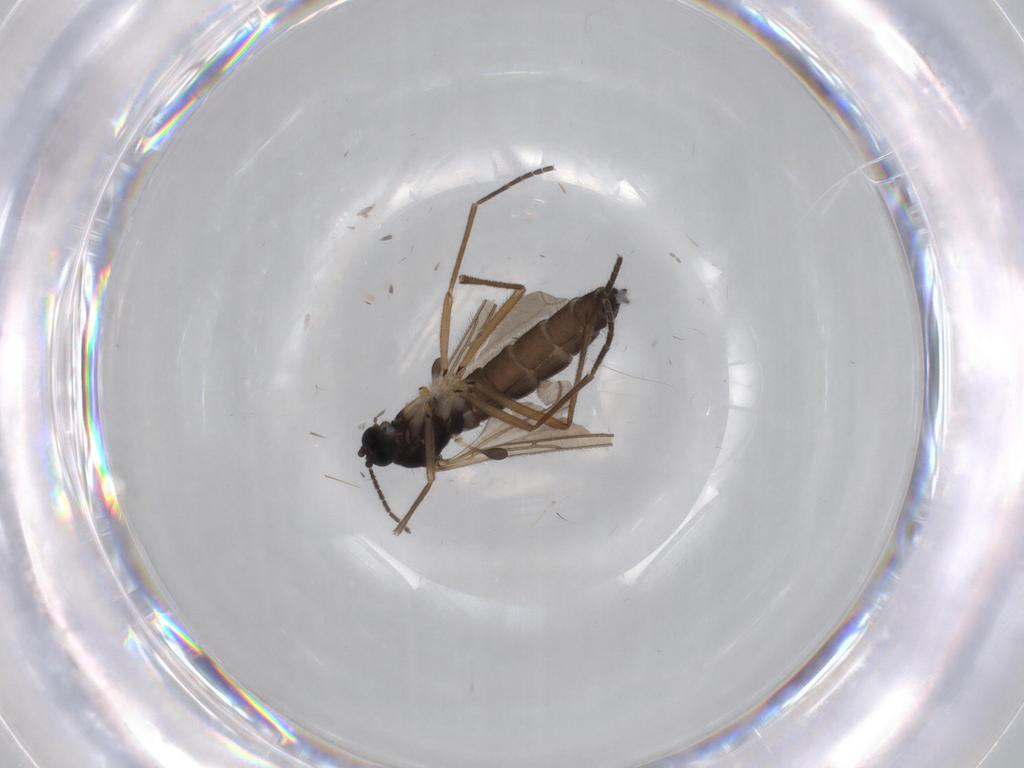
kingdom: Animalia
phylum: Arthropoda
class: Insecta
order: Diptera
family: Sciaridae
